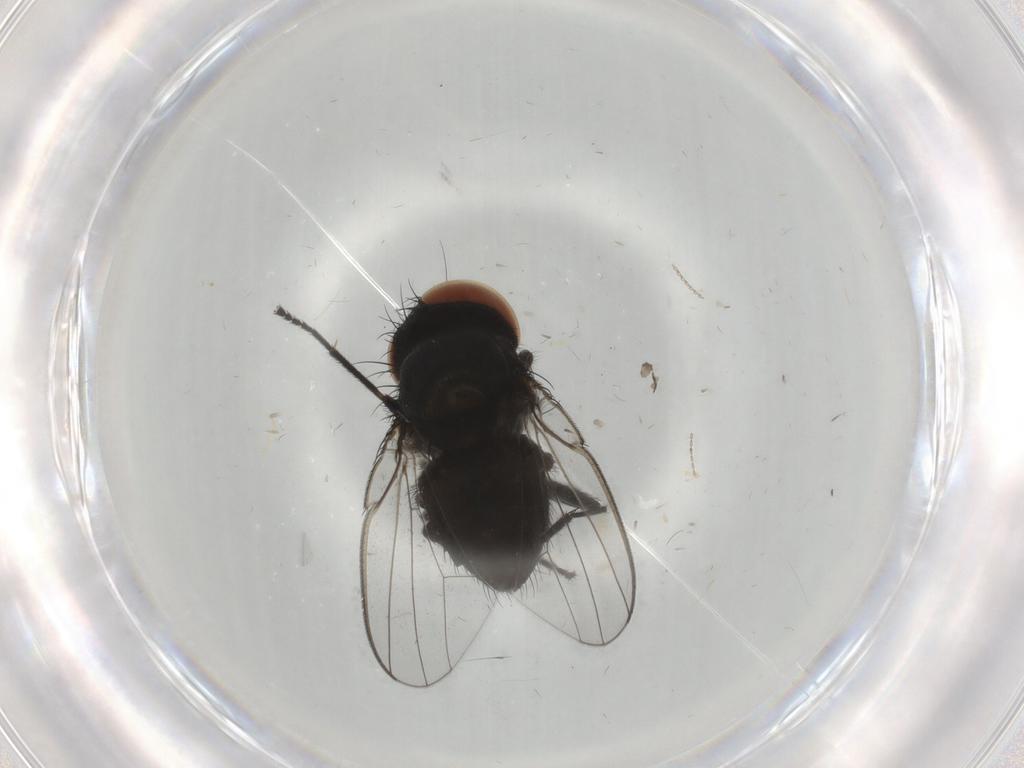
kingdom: Animalia
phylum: Arthropoda
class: Insecta
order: Diptera
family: Milichiidae
